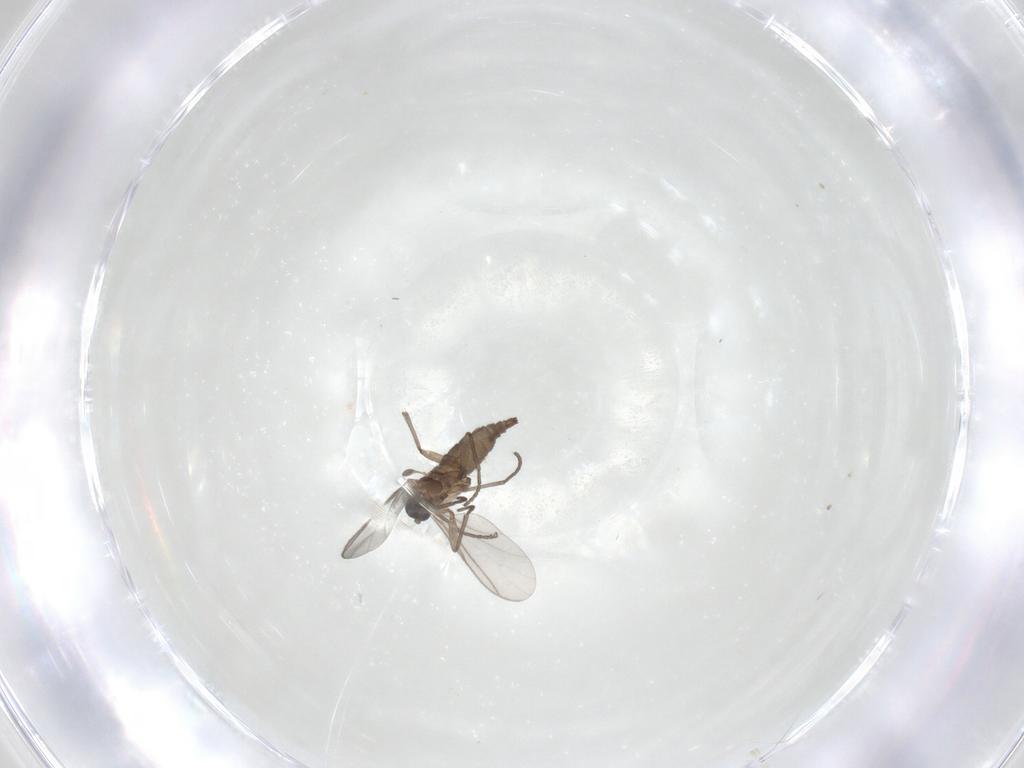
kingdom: Animalia
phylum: Arthropoda
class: Insecta
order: Diptera
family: Sciaridae
